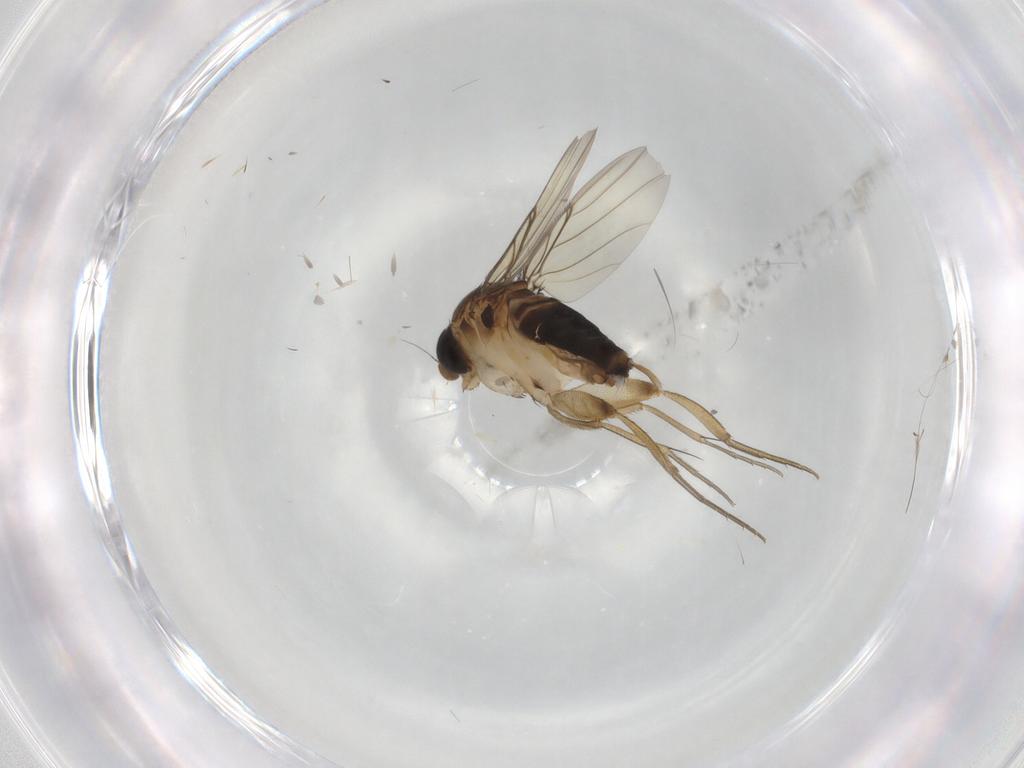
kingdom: Animalia
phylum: Arthropoda
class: Insecta
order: Diptera
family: Phoridae
